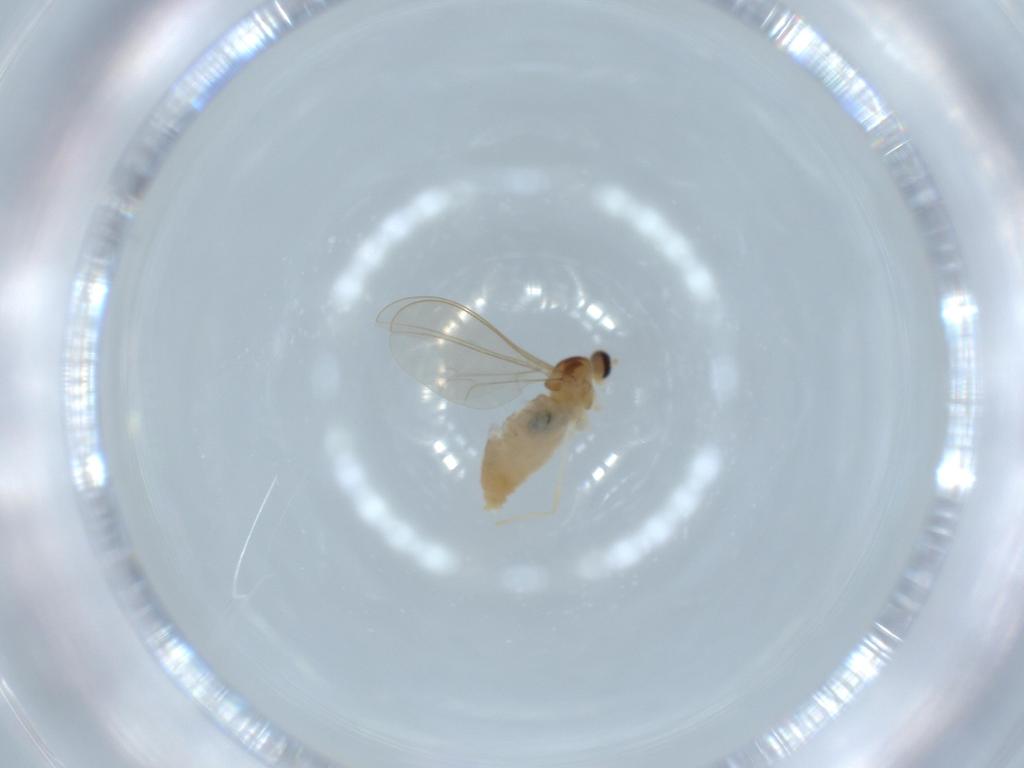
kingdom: Animalia
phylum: Arthropoda
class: Insecta
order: Diptera
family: Cecidomyiidae
